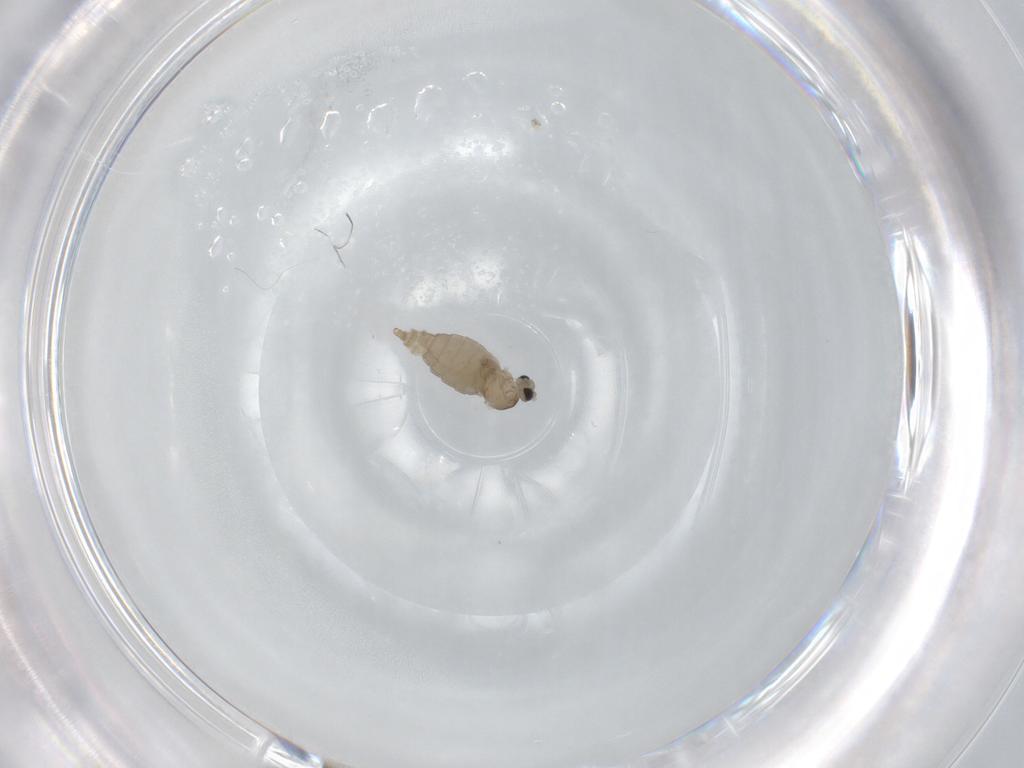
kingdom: Animalia
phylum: Arthropoda
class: Insecta
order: Diptera
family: Cecidomyiidae
